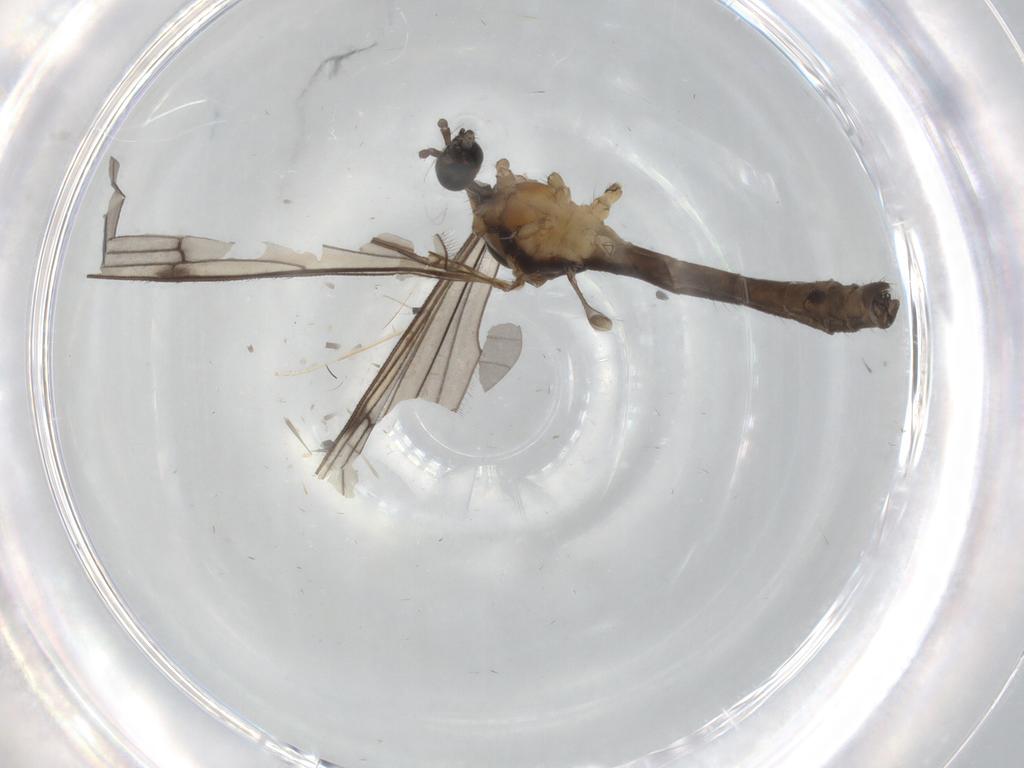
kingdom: Animalia
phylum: Arthropoda
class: Insecta
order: Diptera
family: Limoniidae
